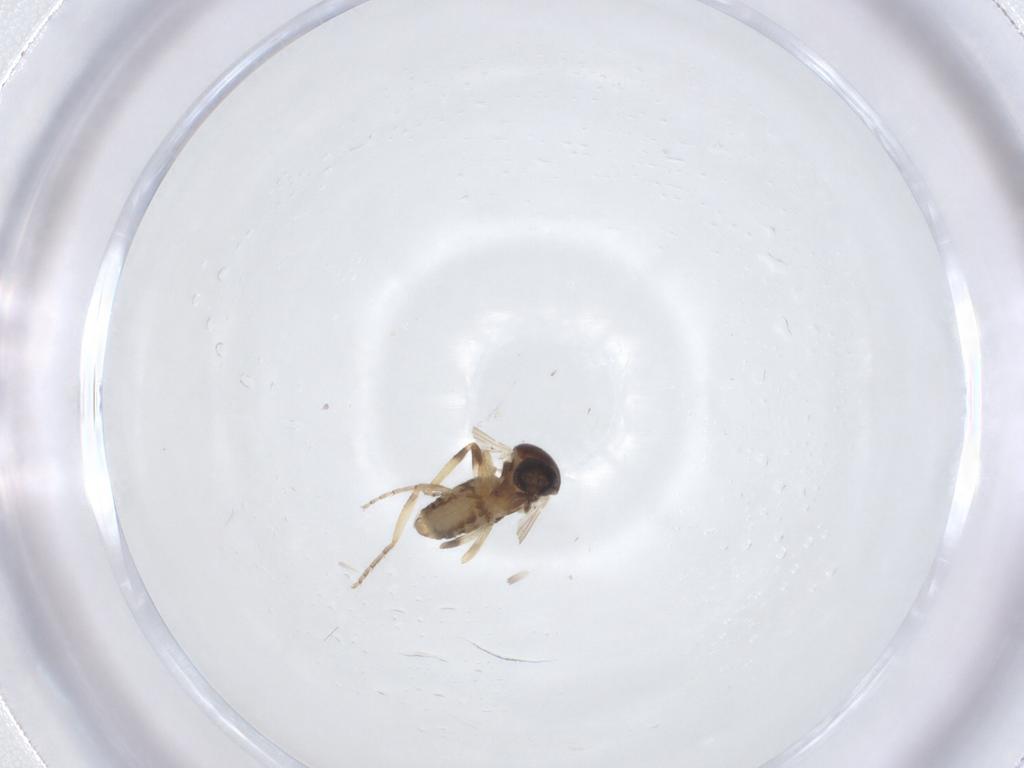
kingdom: Animalia
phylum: Arthropoda
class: Insecta
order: Diptera
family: Ceratopogonidae
